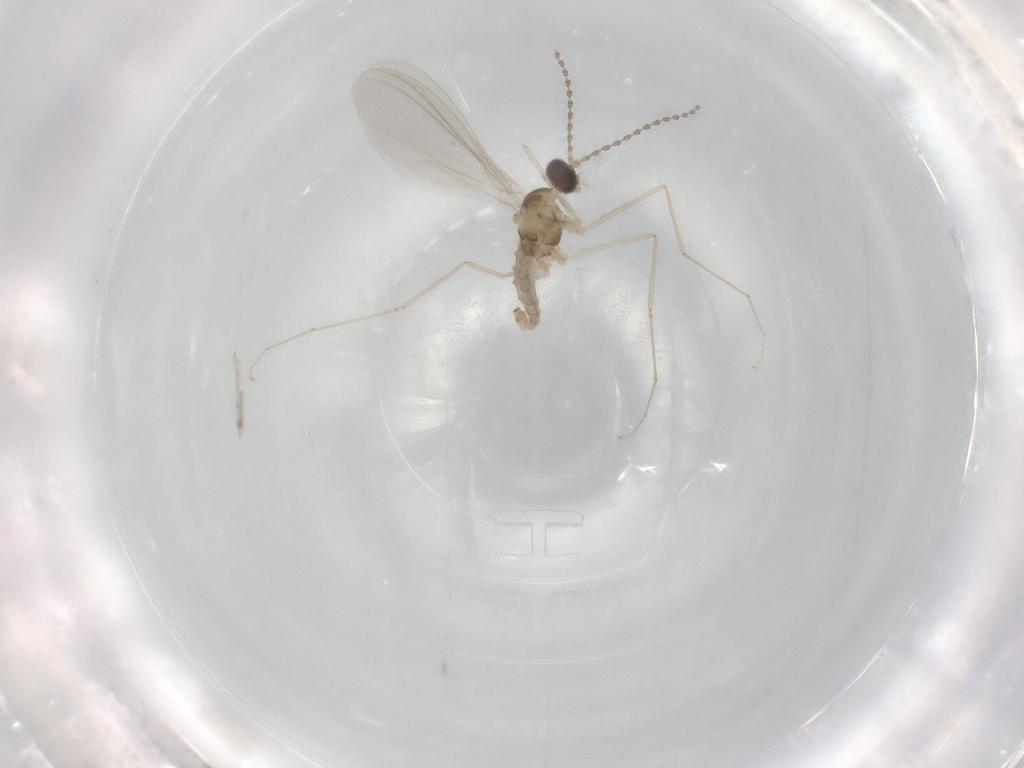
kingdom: Animalia
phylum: Arthropoda
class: Insecta
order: Diptera
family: Cecidomyiidae
